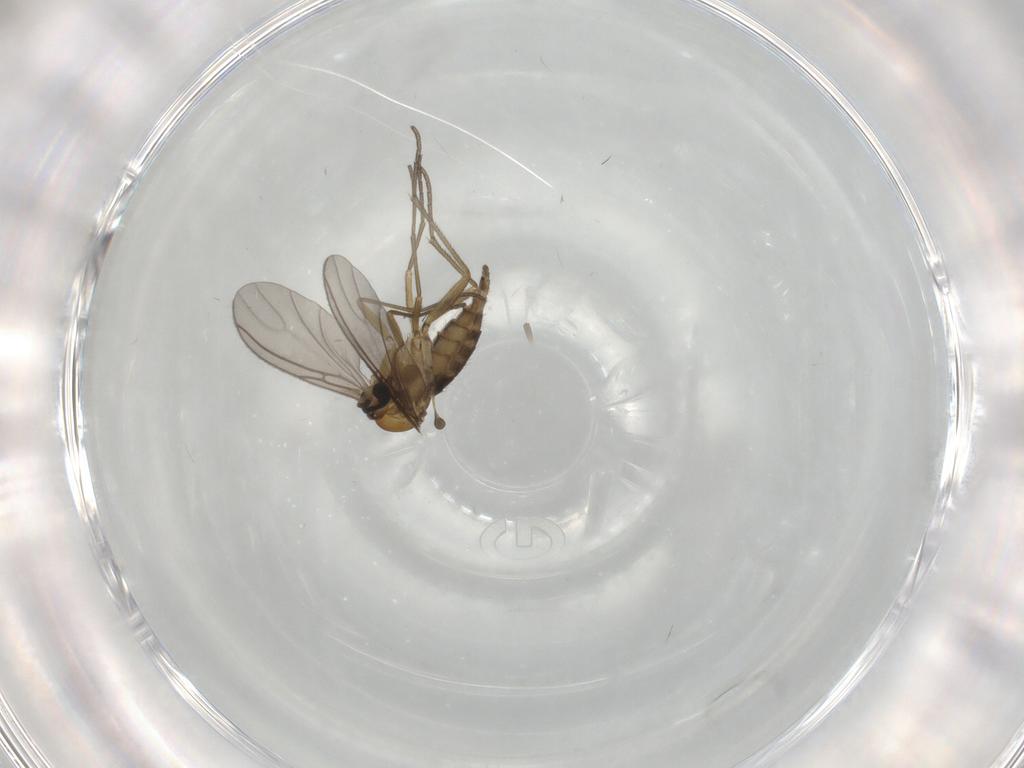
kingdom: Animalia
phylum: Arthropoda
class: Insecta
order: Diptera
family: Sciaridae
